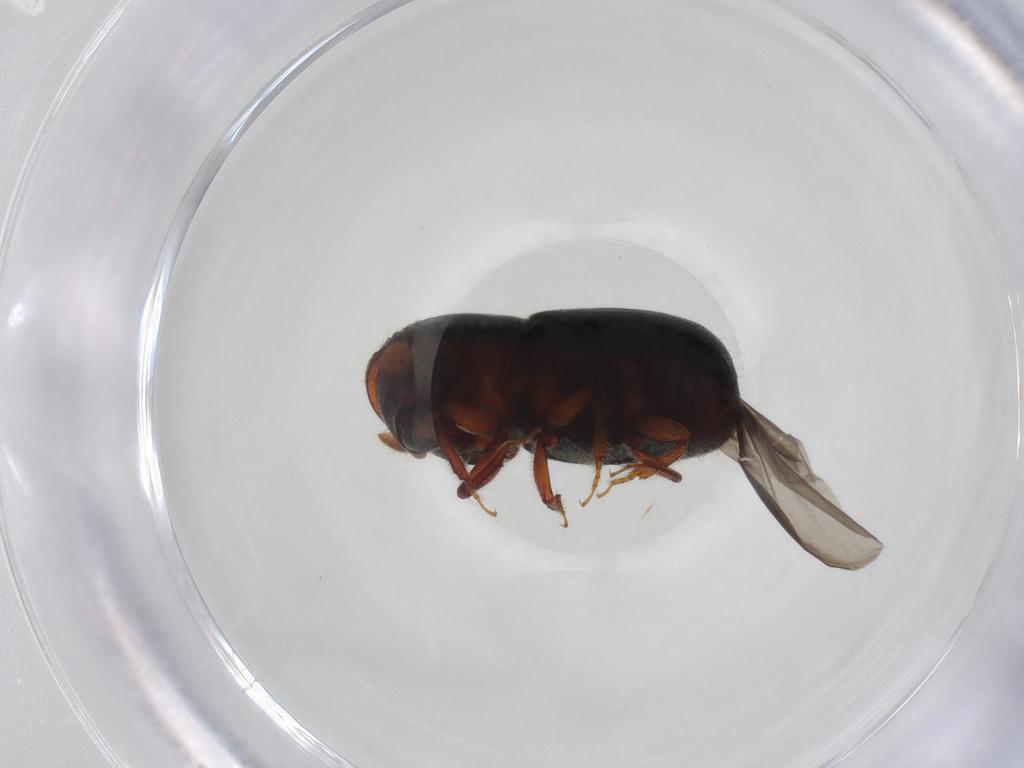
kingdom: Animalia
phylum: Arthropoda
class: Insecta
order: Coleoptera
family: Curculionidae
